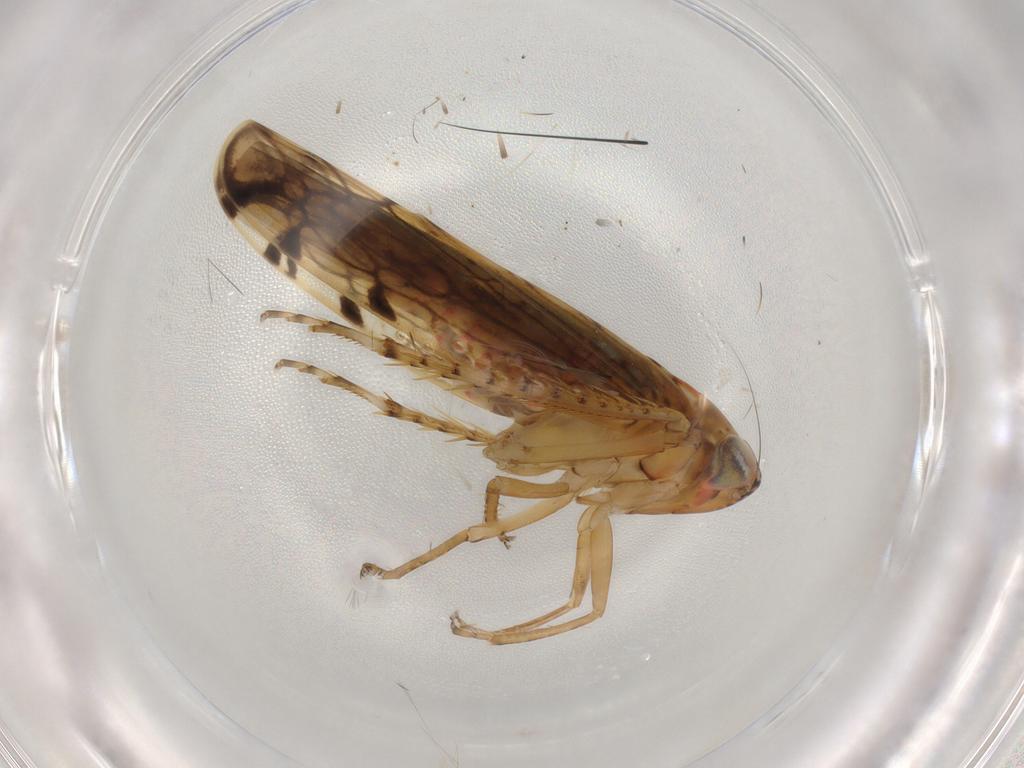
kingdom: Animalia
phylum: Arthropoda
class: Insecta
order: Hemiptera
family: Cicadellidae
